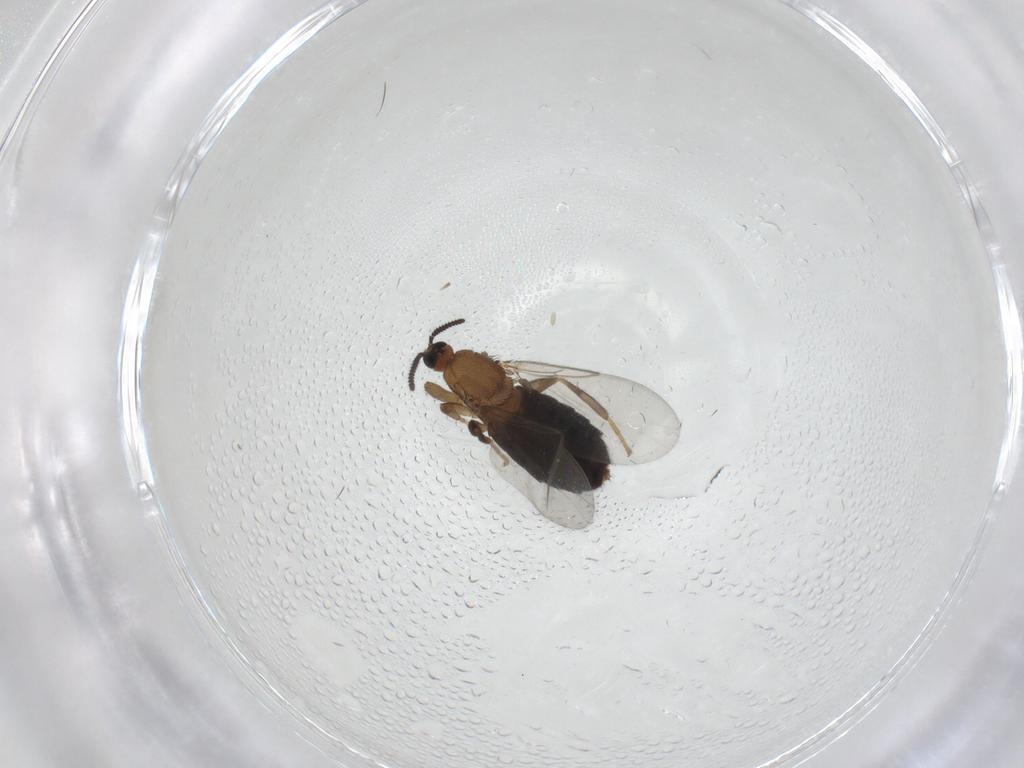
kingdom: Animalia
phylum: Arthropoda
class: Insecta
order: Diptera
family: Scatopsidae
